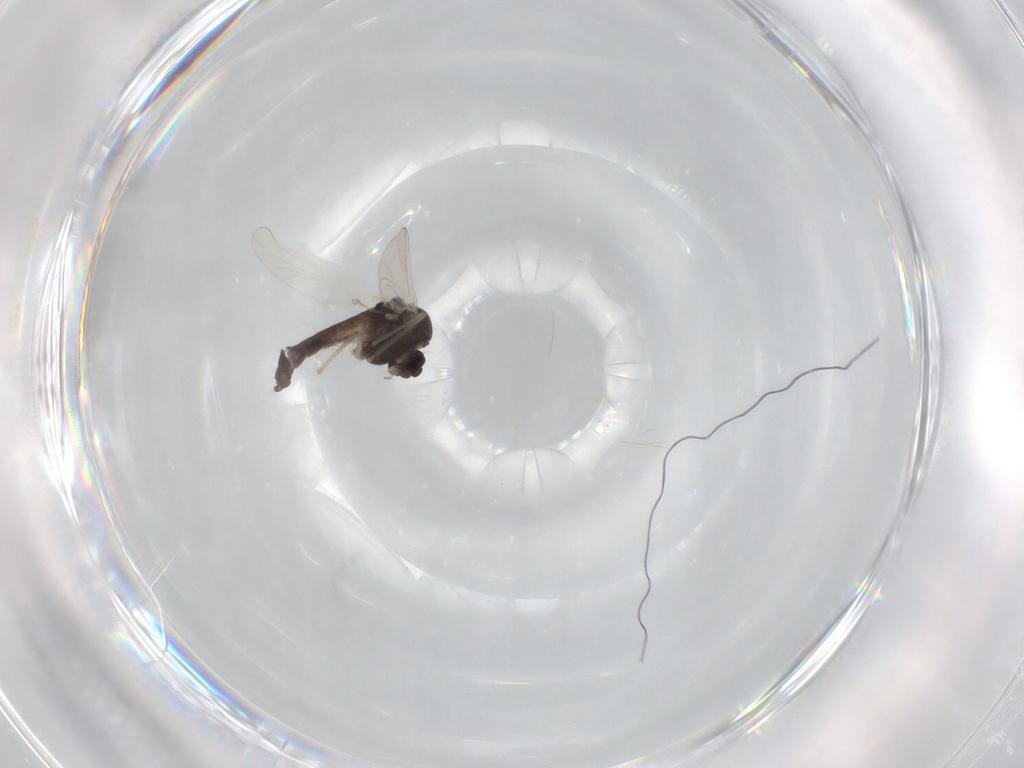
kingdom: Animalia
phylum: Arthropoda
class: Insecta
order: Diptera
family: Chironomidae
